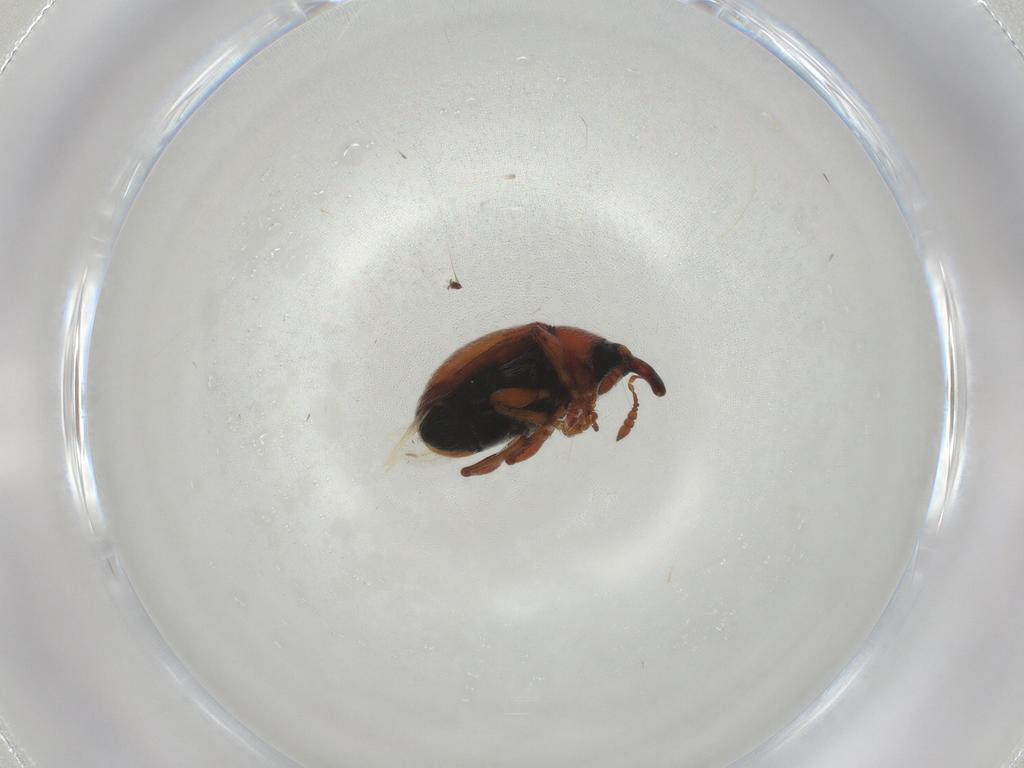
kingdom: Animalia
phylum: Arthropoda
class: Insecta
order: Coleoptera
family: Brentidae
